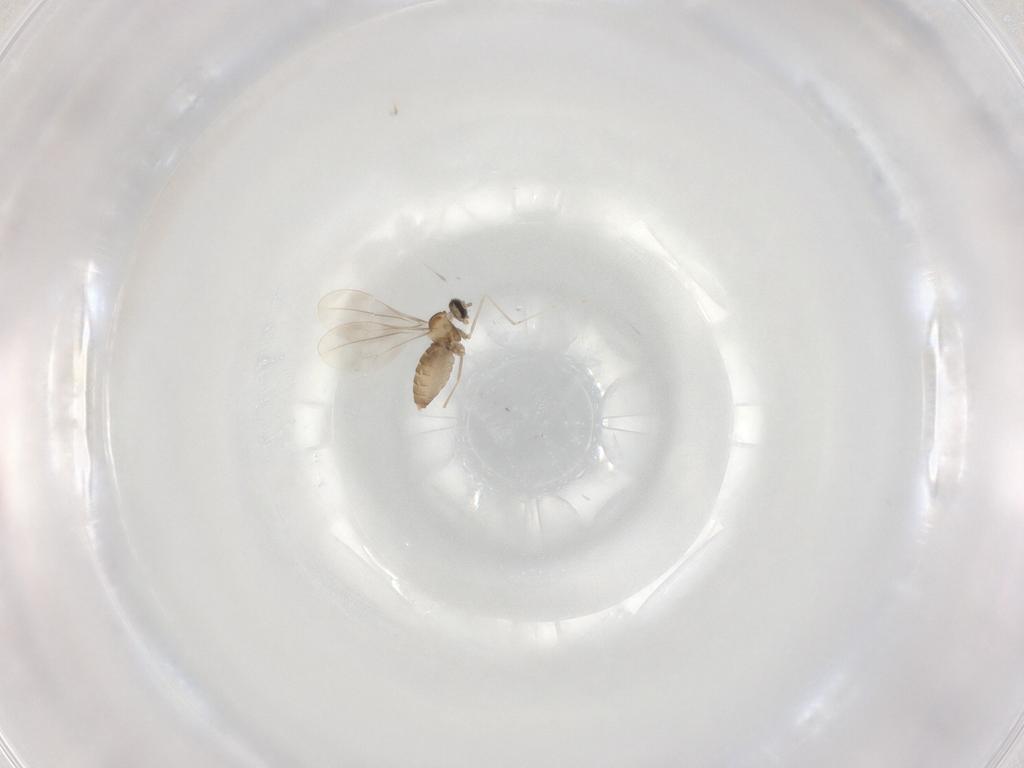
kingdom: Animalia
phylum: Arthropoda
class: Insecta
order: Diptera
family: Cecidomyiidae
